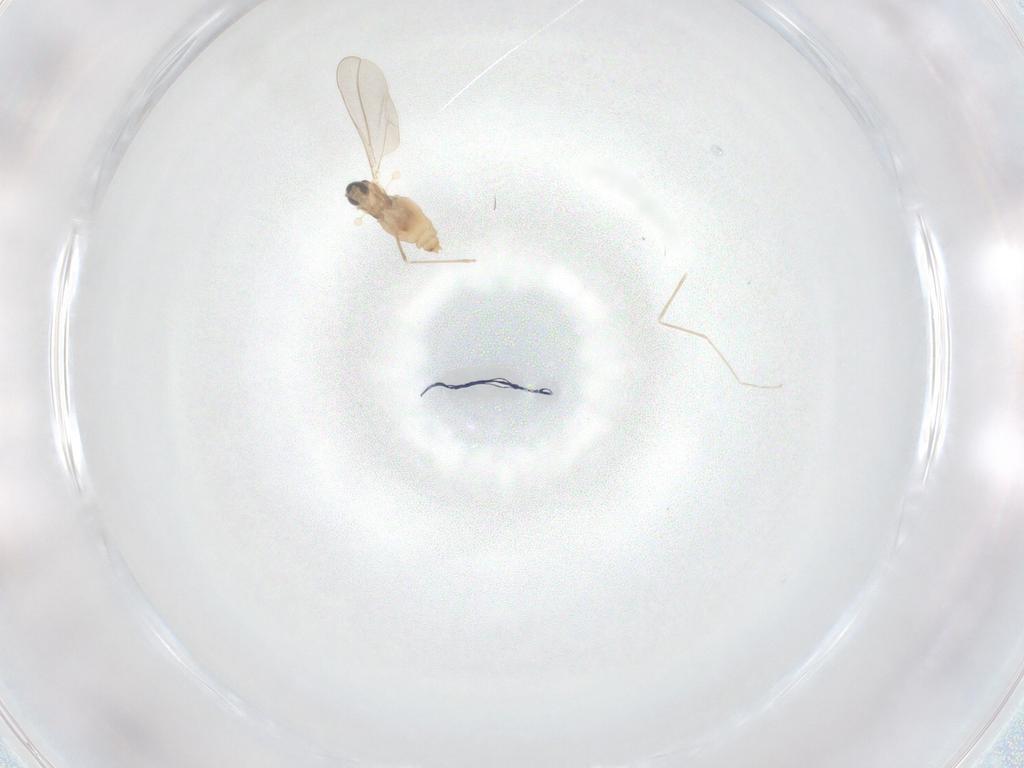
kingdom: Animalia
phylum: Arthropoda
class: Insecta
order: Diptera
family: Cecidomyiidae
